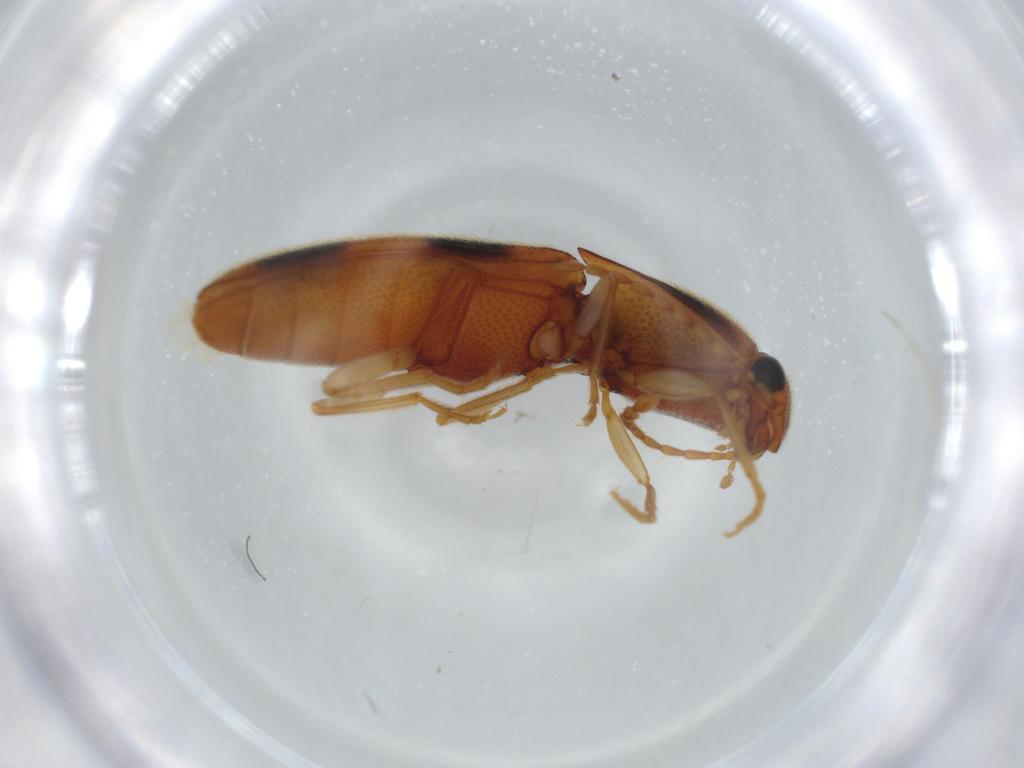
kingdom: Animalia
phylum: Arthropoda
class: Insecta
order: Coleoptera
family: Elateridae
